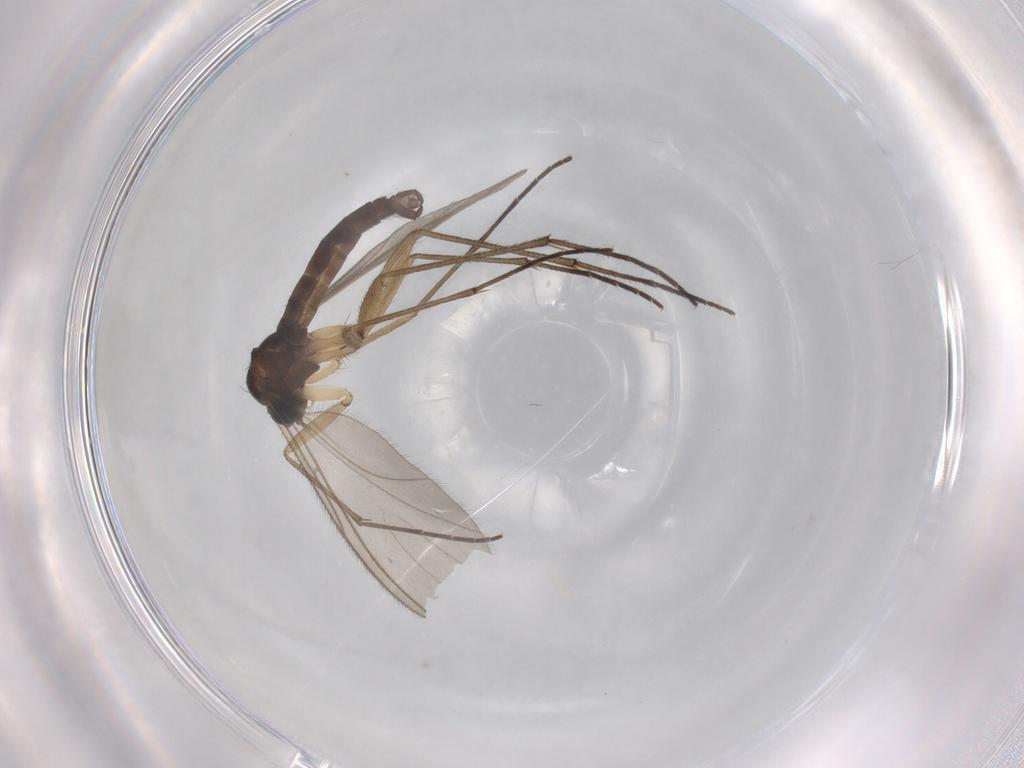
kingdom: Animalia
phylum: Arthropoda
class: Insecta
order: Diptera
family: Sciaridae
